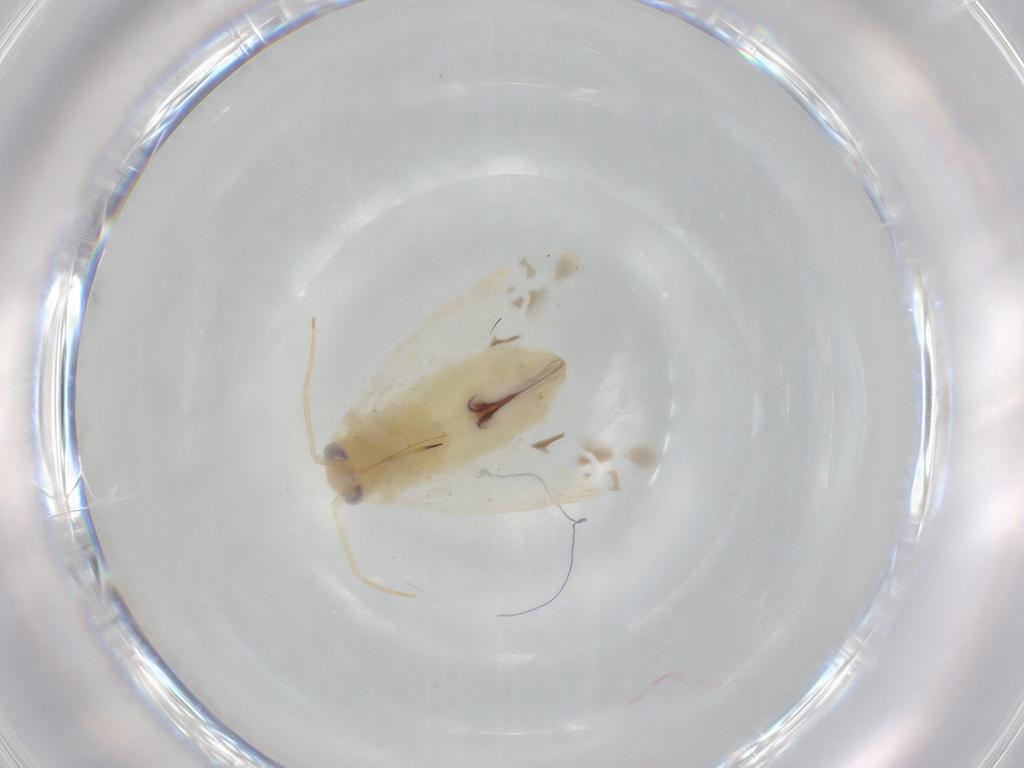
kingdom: Animalia
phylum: Arthropoda
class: Insecta
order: Hemiptera
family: Miridae
